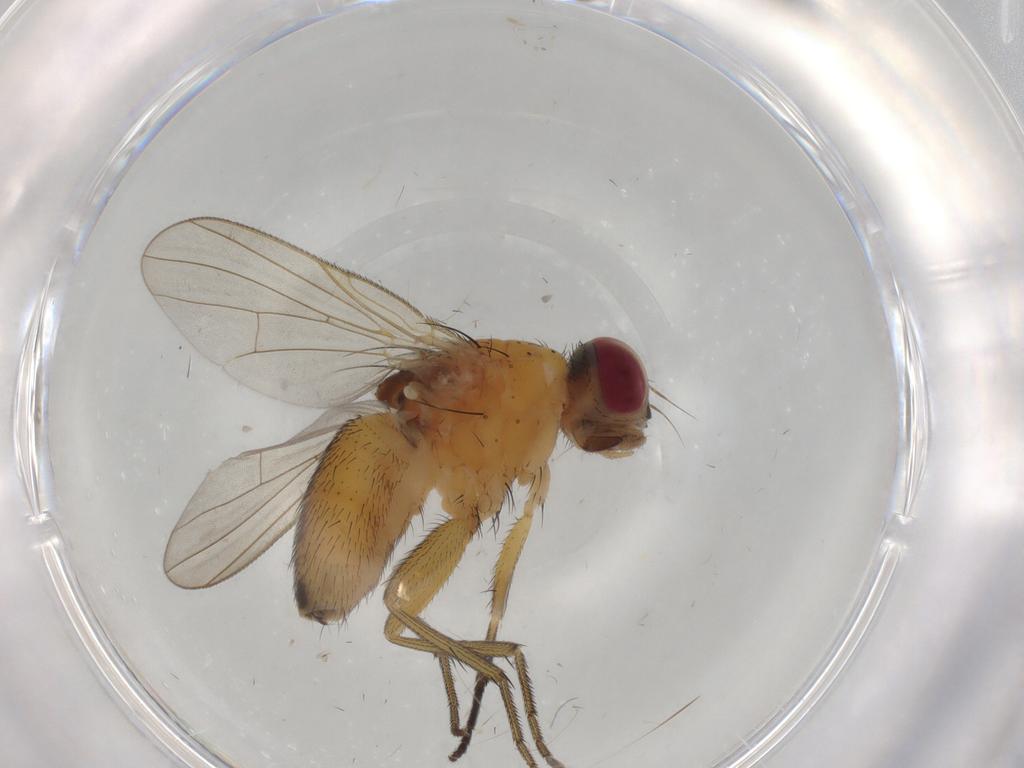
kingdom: Animalia
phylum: Arthropoda
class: Insecta
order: Diptera
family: Muscidae
